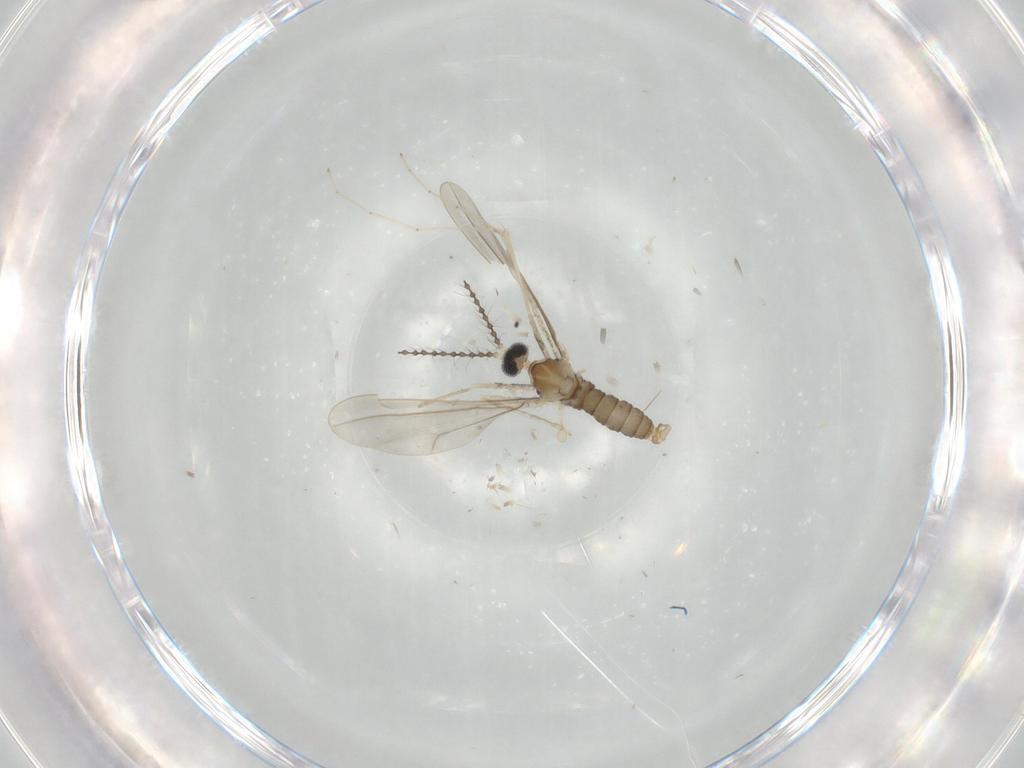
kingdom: Animalia
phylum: Arthropoda
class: Insecta
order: Diptera
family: Cecidomyiidae
